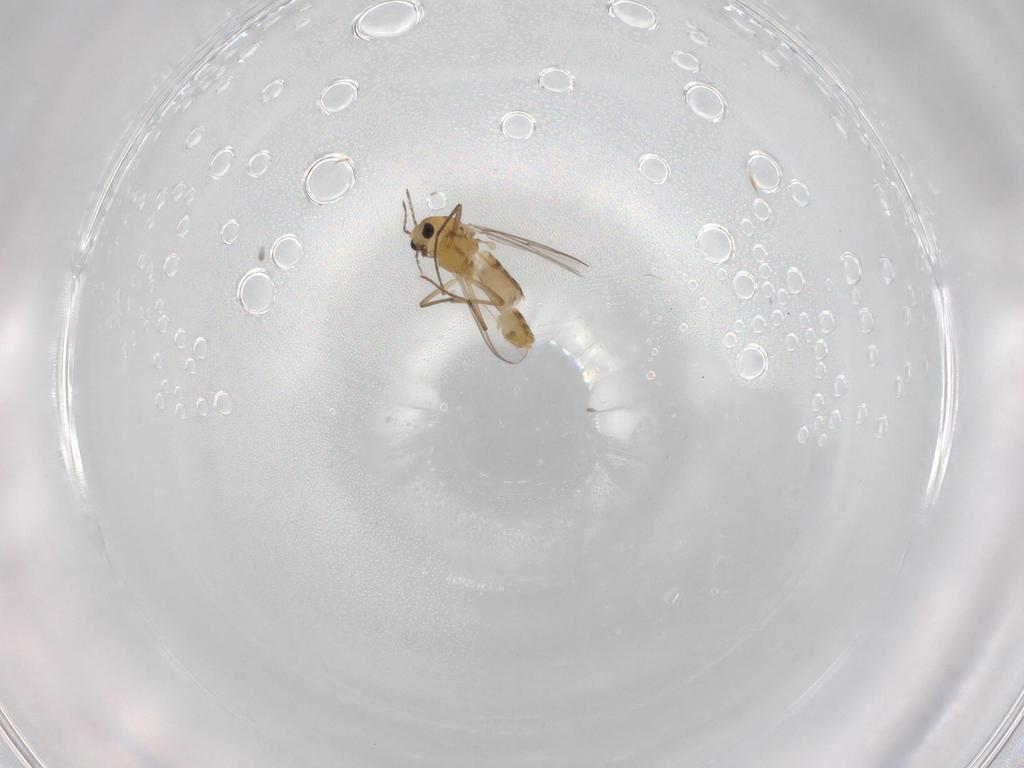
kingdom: Animalia
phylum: Arthropoda
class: Insecta
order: Diptera
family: Chironomidae
